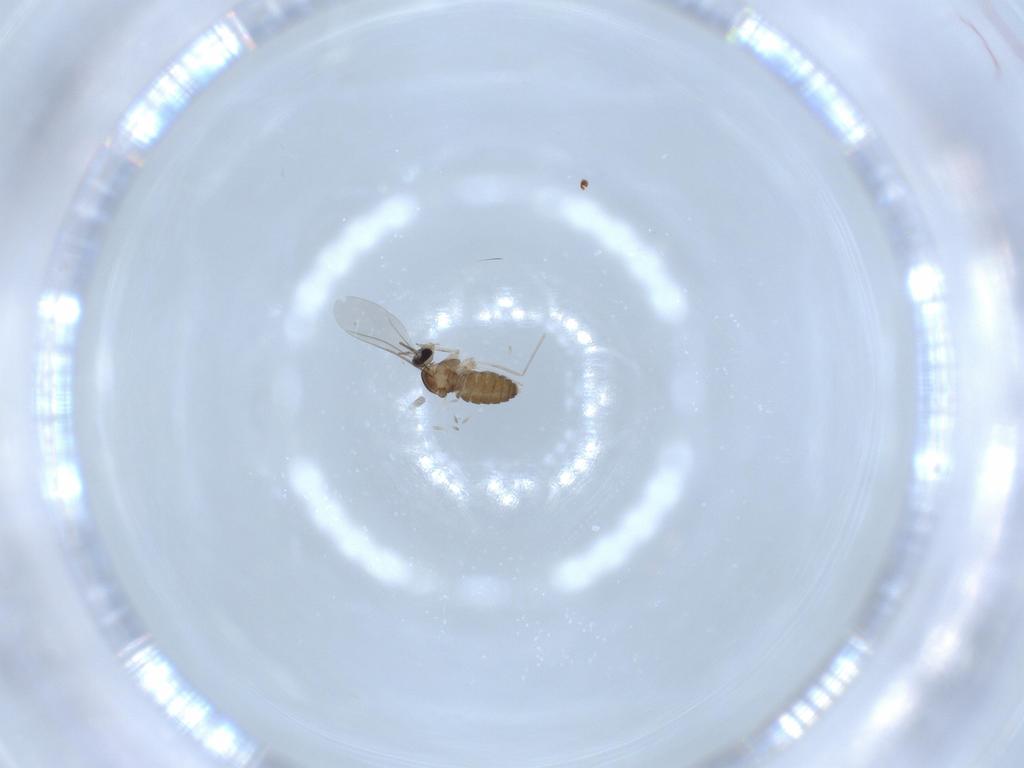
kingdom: Animalia
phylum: Arthropoda
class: Insecta
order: Diptera
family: Cecidomyiidae
